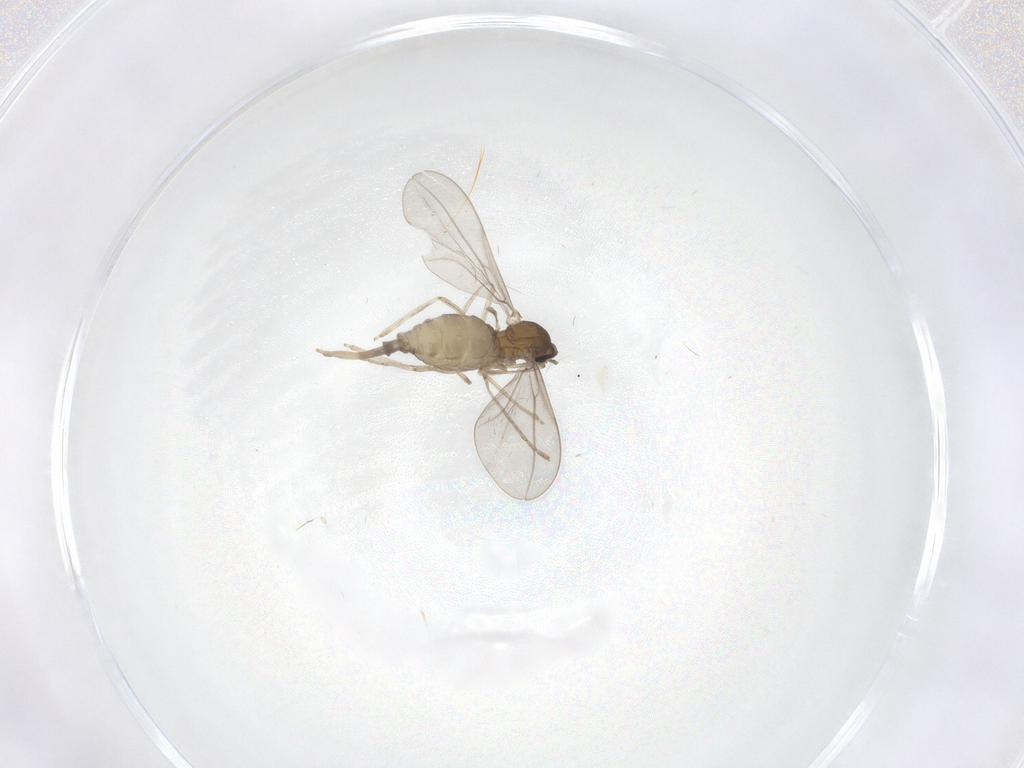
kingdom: Animalia
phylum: Arthropoda
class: Insecta
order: Diptera
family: Cecidomyiidae
